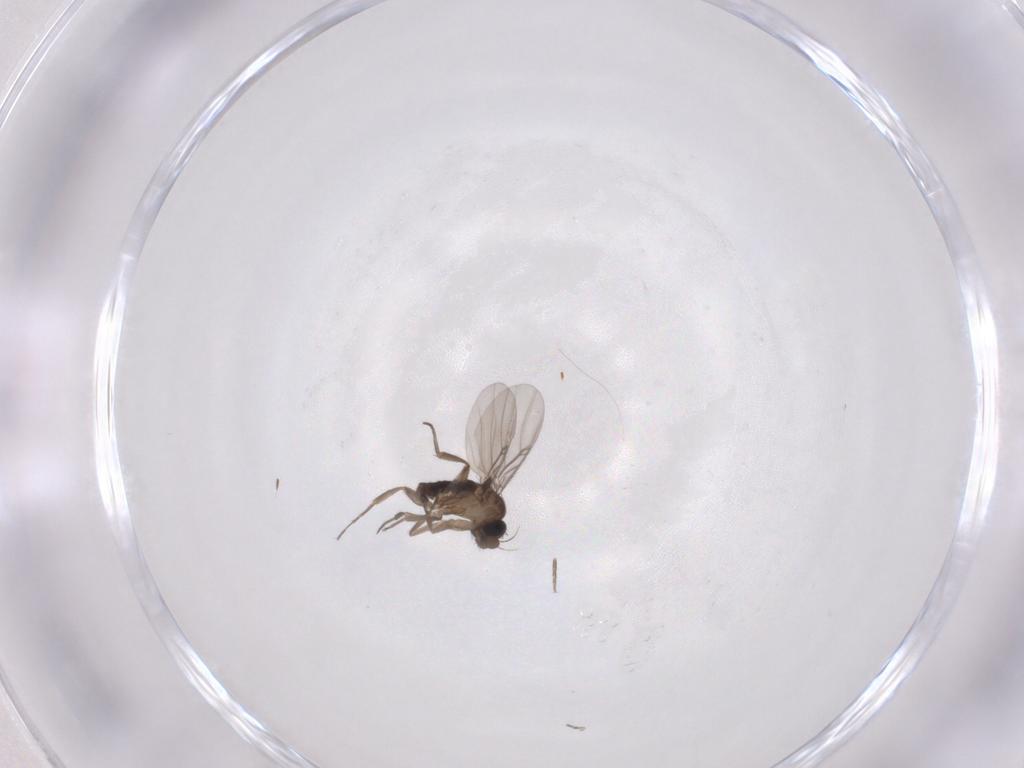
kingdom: Animalia
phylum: Arthropoda
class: Insecta
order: Diptera
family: Phoridae
